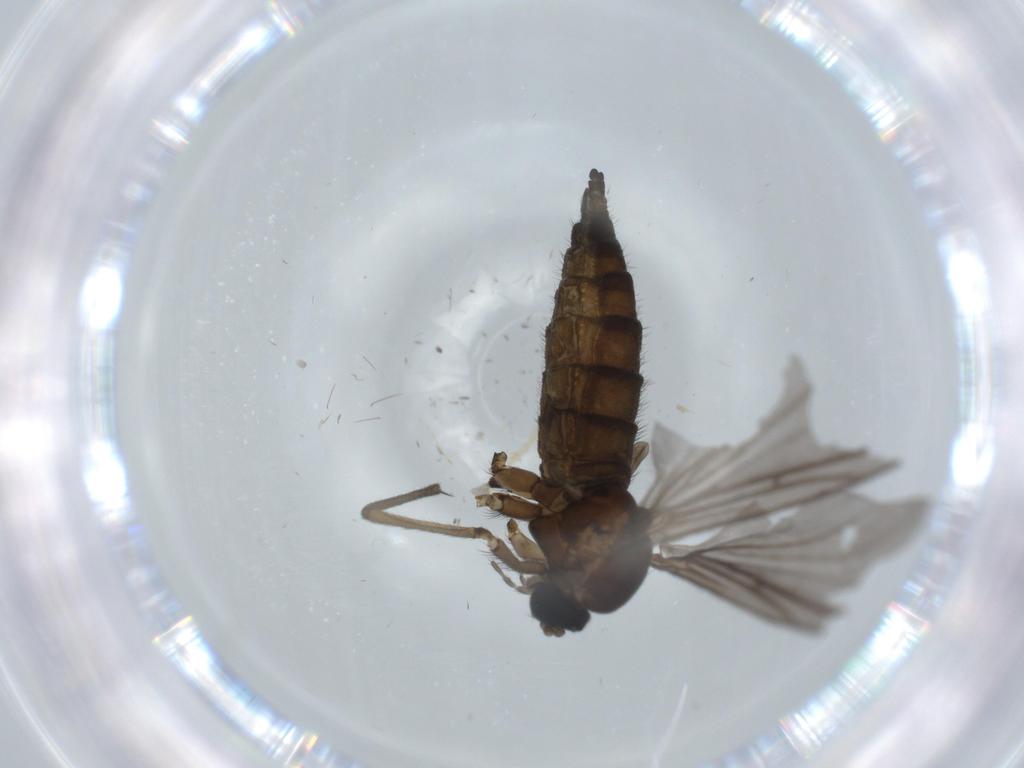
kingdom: Animalia
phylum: Arthropoda
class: Insecta
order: Diptera
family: Sciaridae
